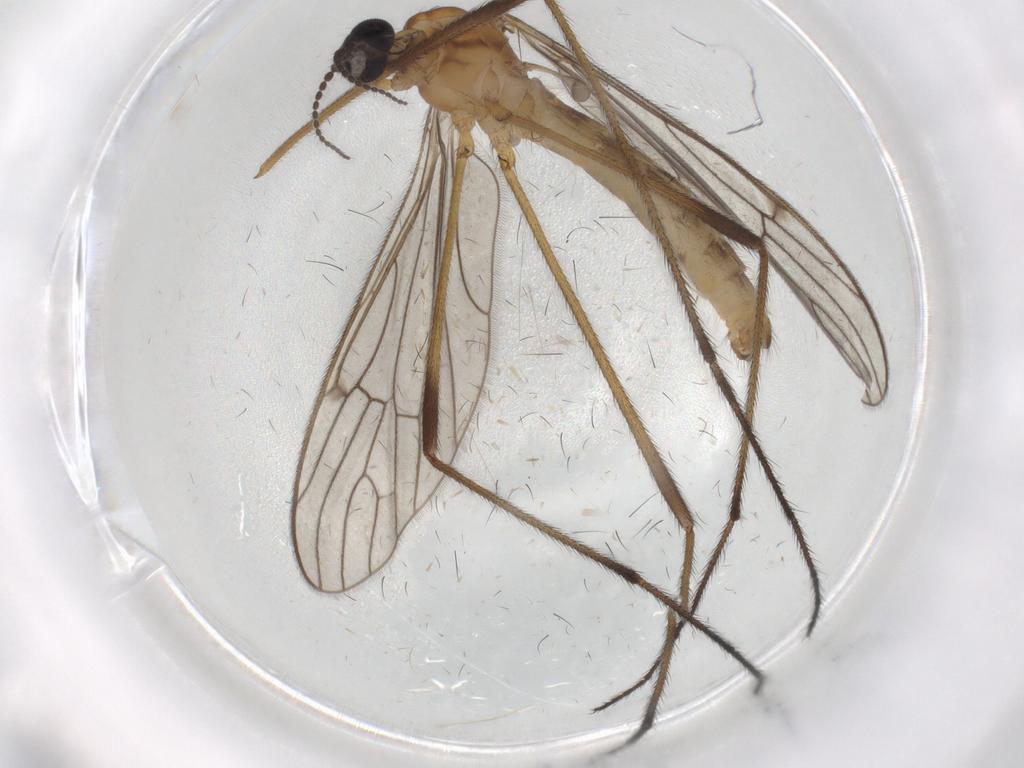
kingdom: Animalia
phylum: Arthropoda
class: Insecta
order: Diptera
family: Limoniidae
